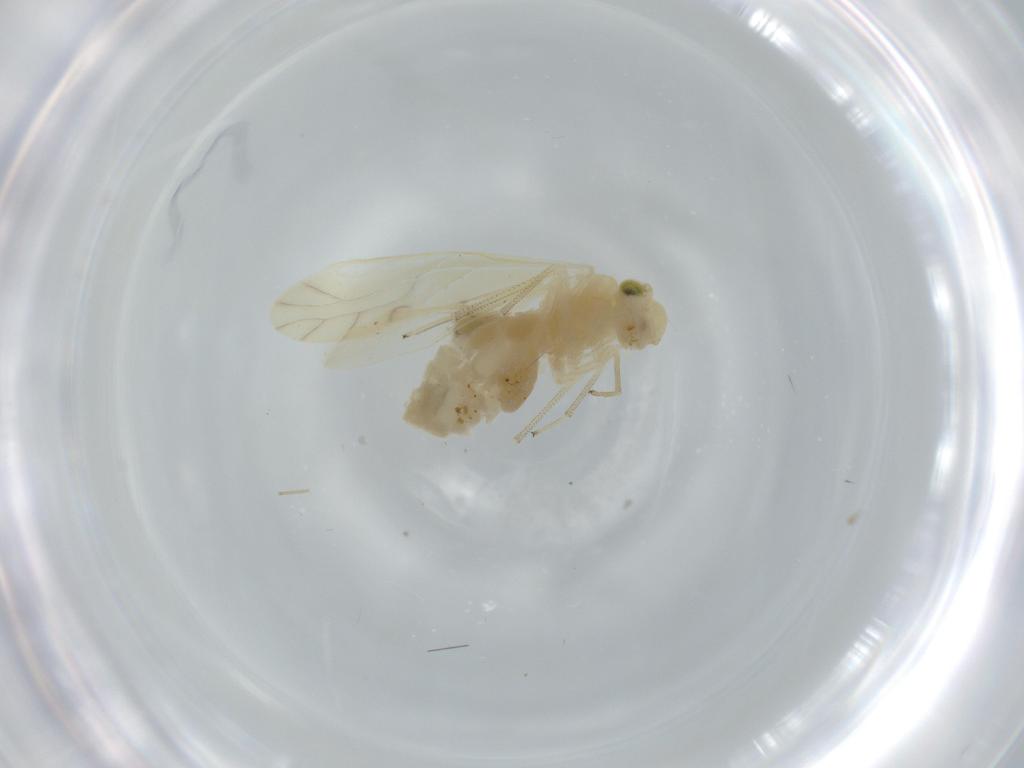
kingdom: Animalia
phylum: Arthropoda
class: Insecta
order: Psocodea
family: Caeciliusidae
